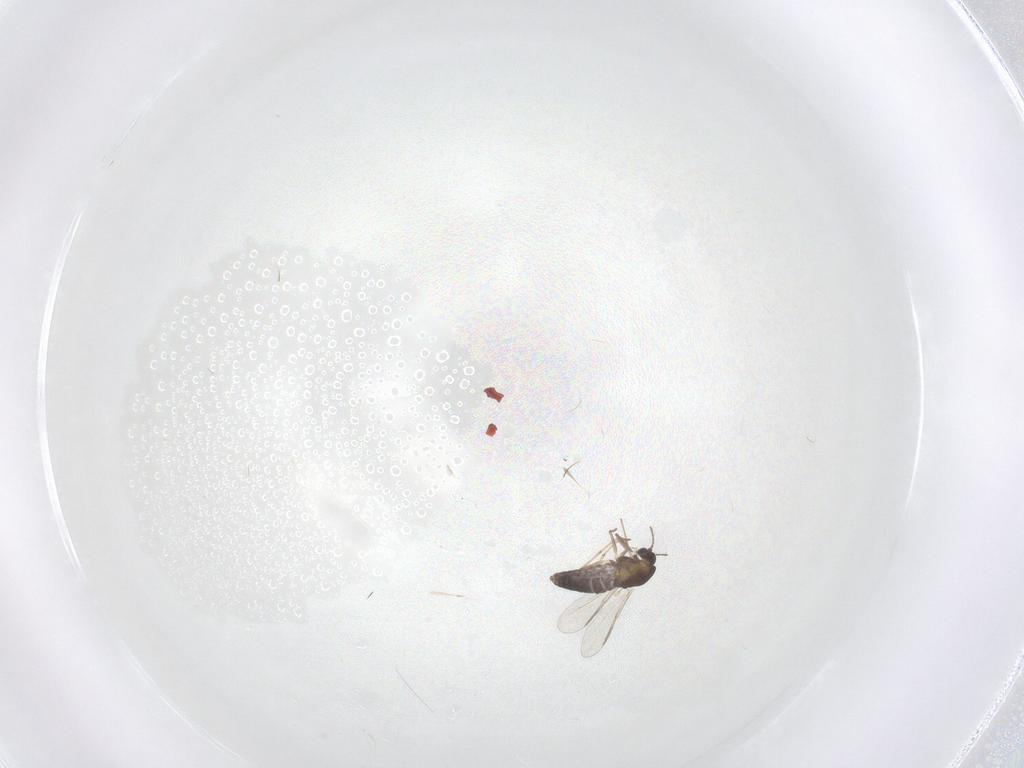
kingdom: Animalia
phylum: Arthropoda
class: Insecta
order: Diptera
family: Chironomidae
